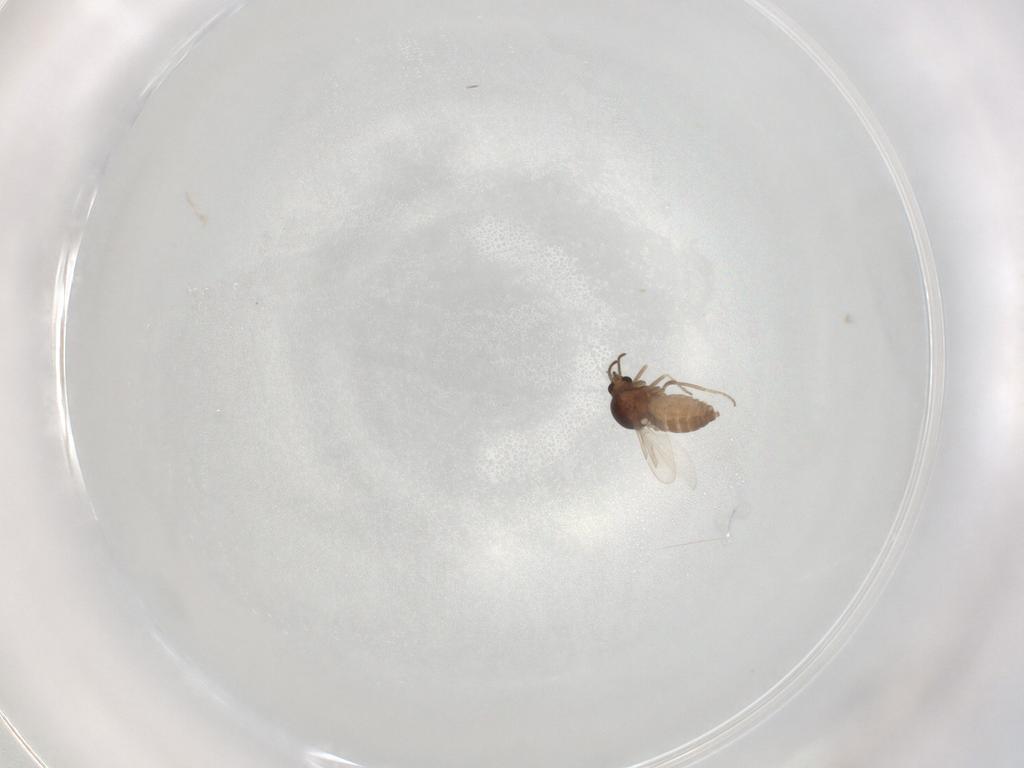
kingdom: Animalia
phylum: Arthropoda
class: Insecta
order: Diptera
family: Ceratopogonidae
